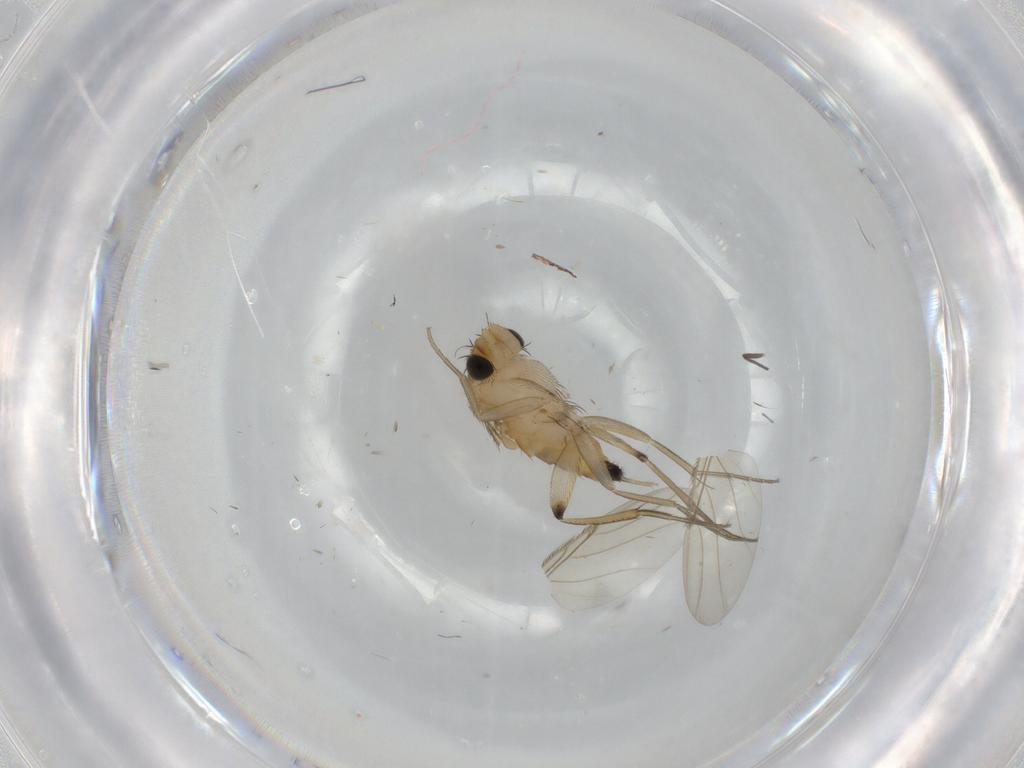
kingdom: Animalia
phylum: Arthropoda
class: Insecta
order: Diptera
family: Phoridae
